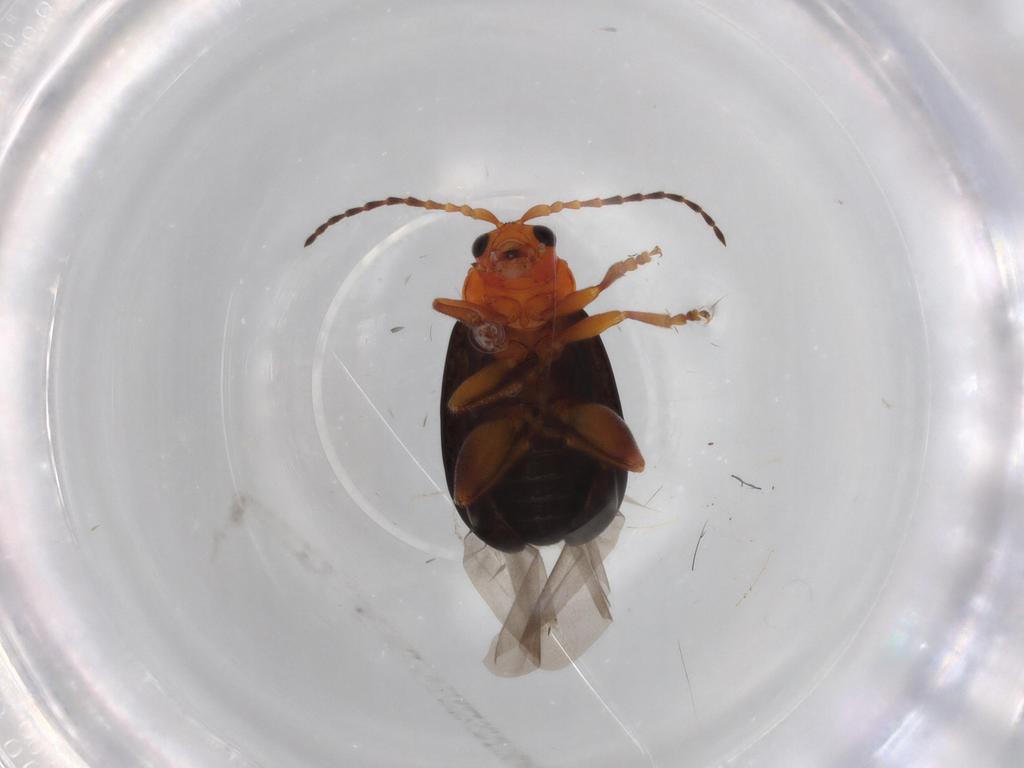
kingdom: Animalia
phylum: Arthropoda
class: Insecta
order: Coleoptera
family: Chrysomelidae
